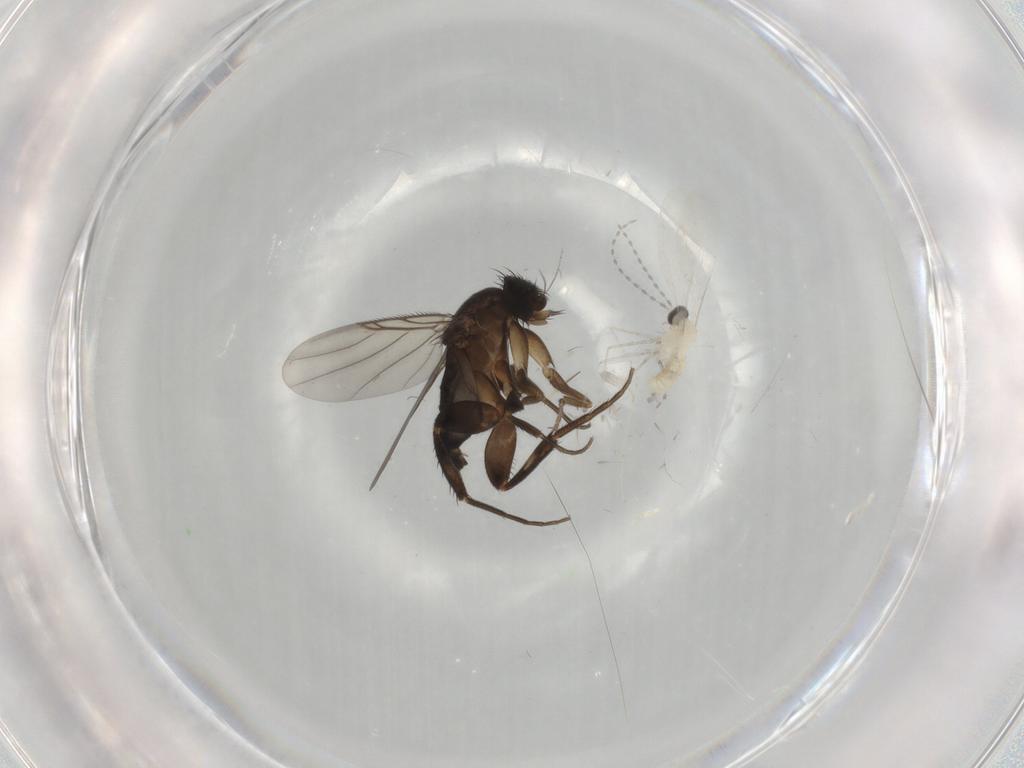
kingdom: Animalia
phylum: Arthropoda
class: Insecta
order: Diptera
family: Phoridae
